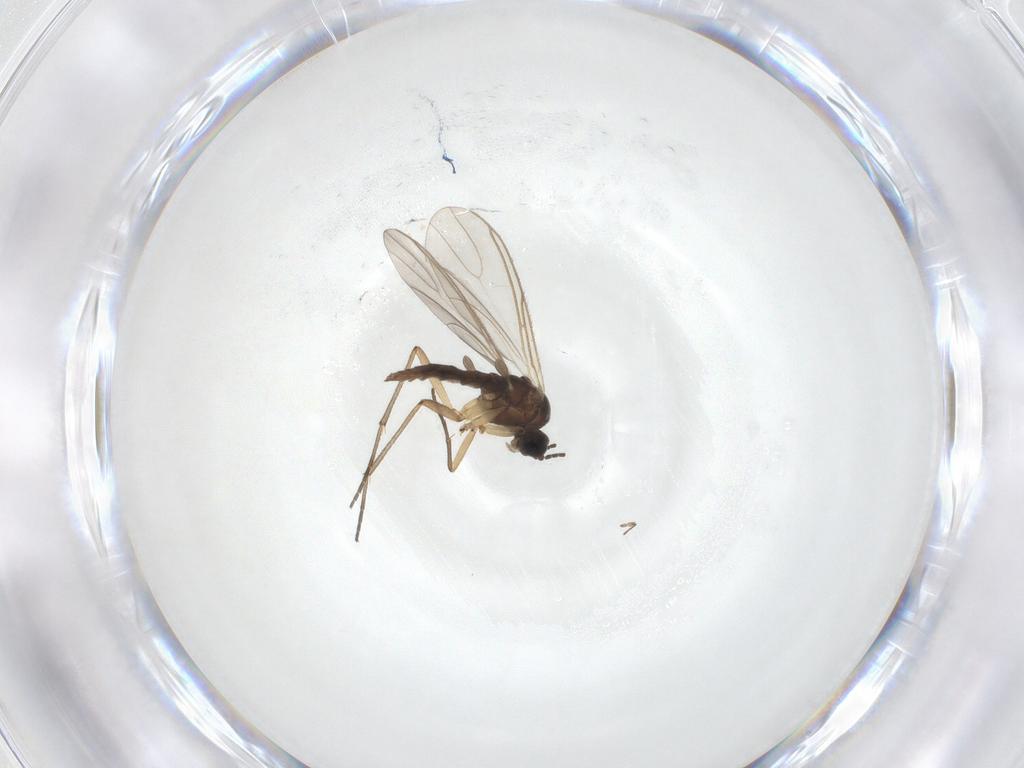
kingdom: Animalia
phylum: Arthropoda
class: Insecta
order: Diptera
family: Sciaridae
